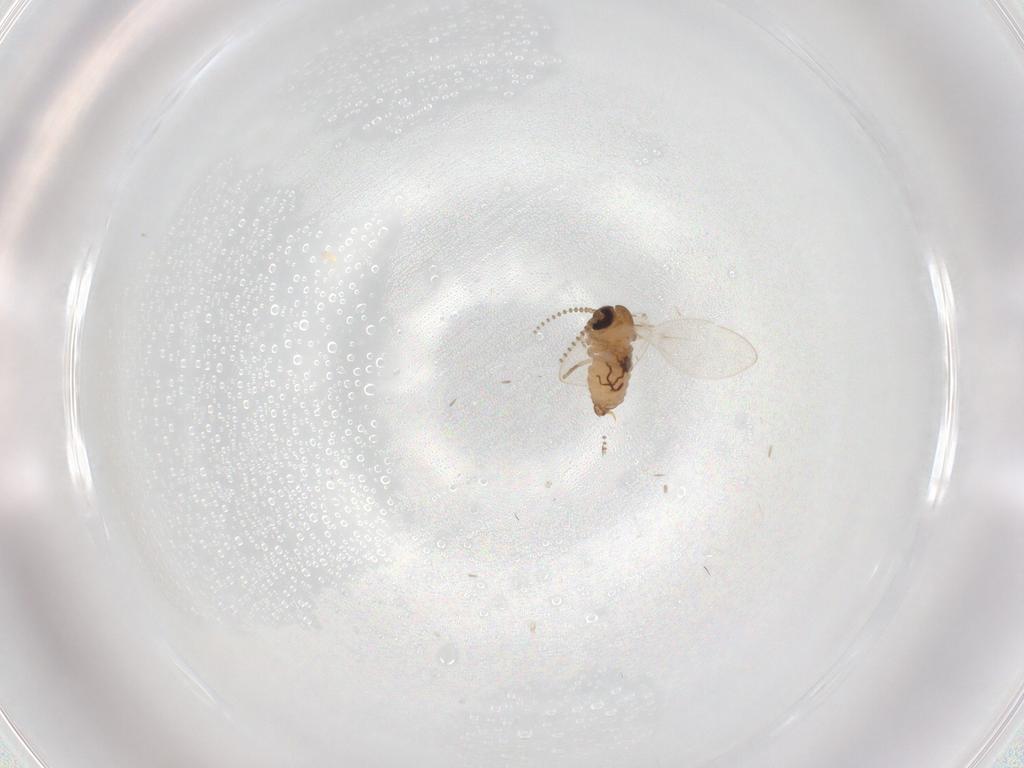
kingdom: Animalia
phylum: Arthropoda
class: Insecta
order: Diptera
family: Psychodidae
